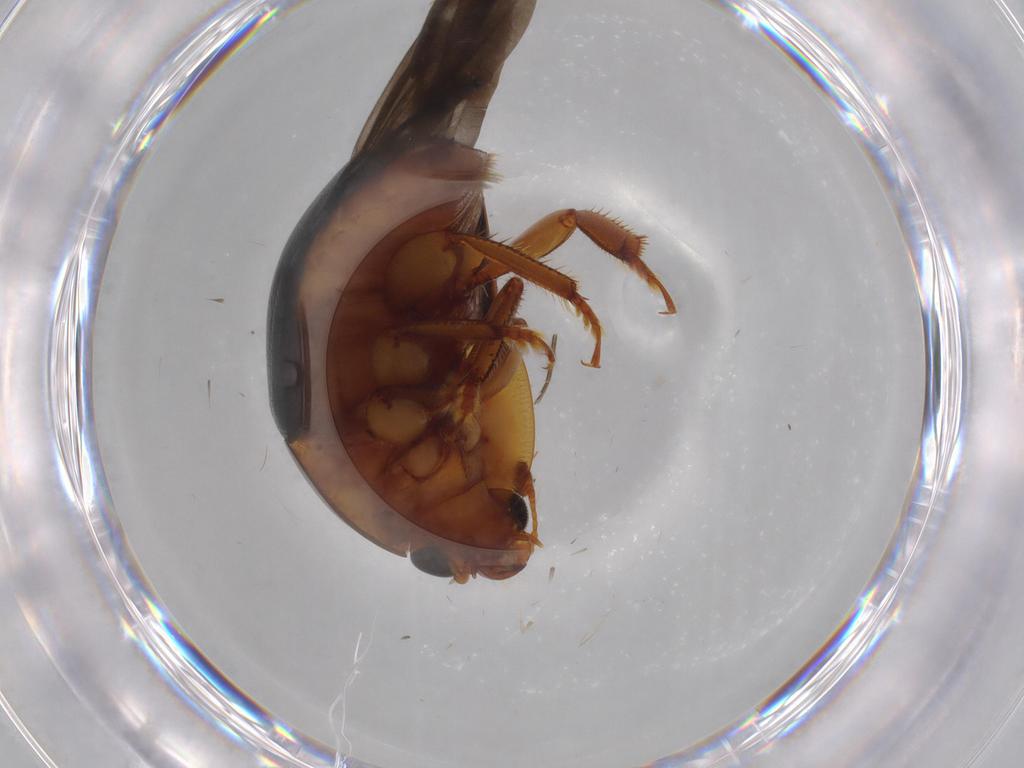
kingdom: Animalia
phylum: Arthropoda
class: Insecta
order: Coleoptera
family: Nitidulidae
